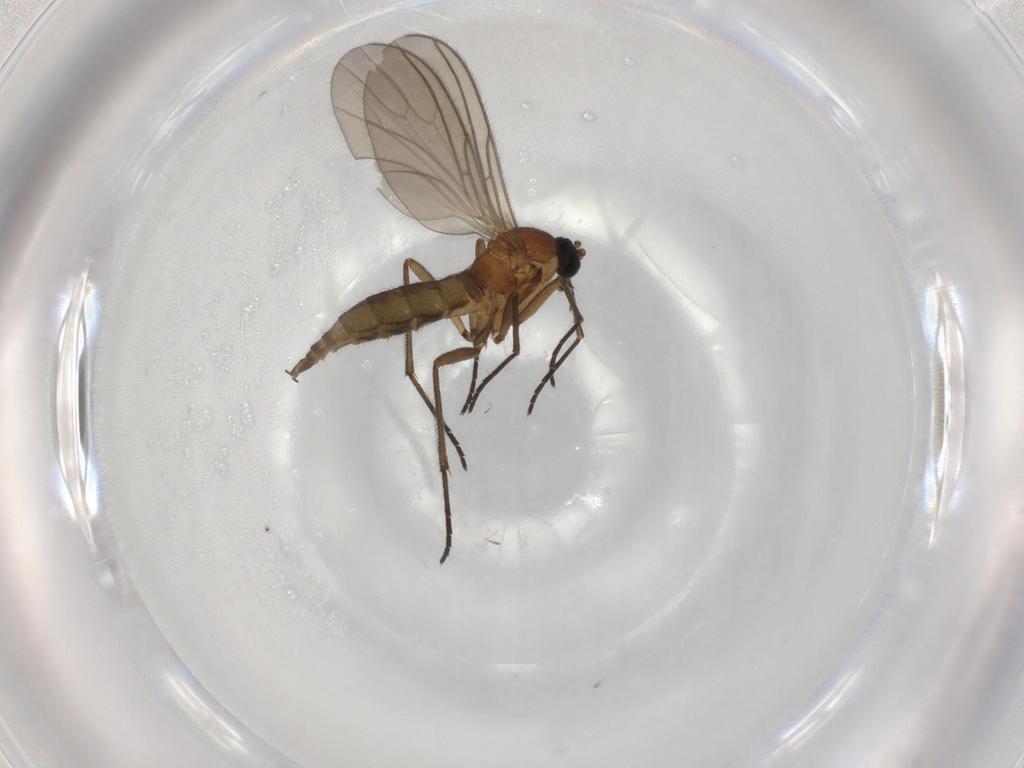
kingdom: Animalia
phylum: Arthropoda
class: Insecta
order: Diptera
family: Sciaridae
